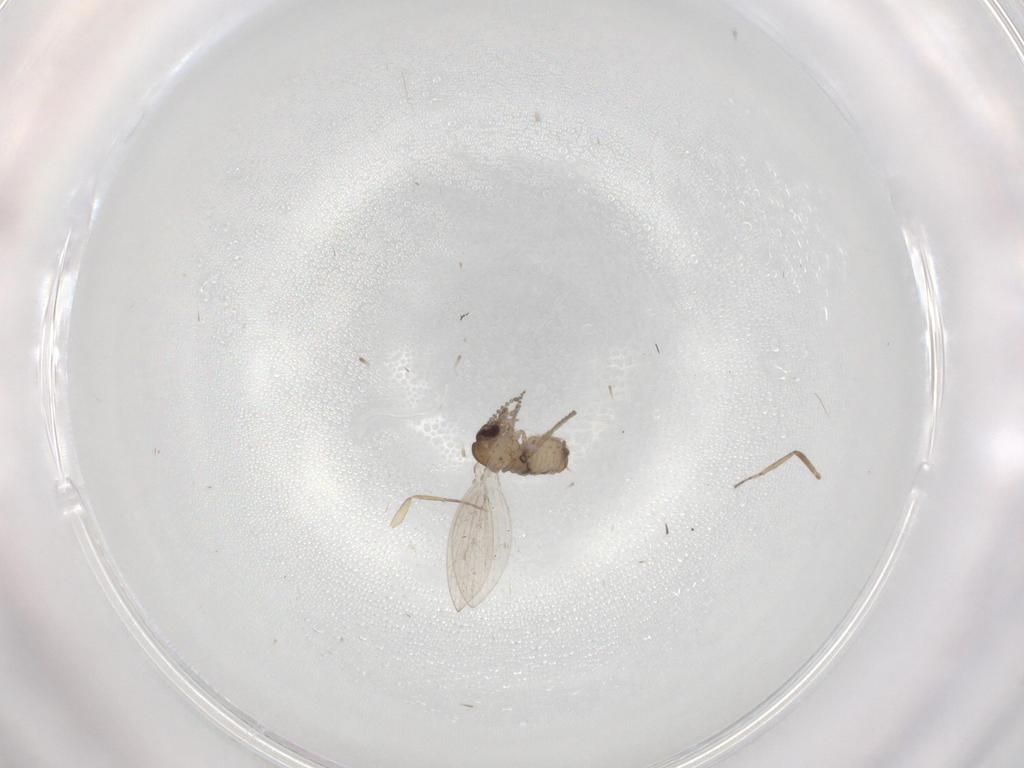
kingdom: Animalia
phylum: Arthropoda
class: Insecta
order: Diptera
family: Psychodidae
